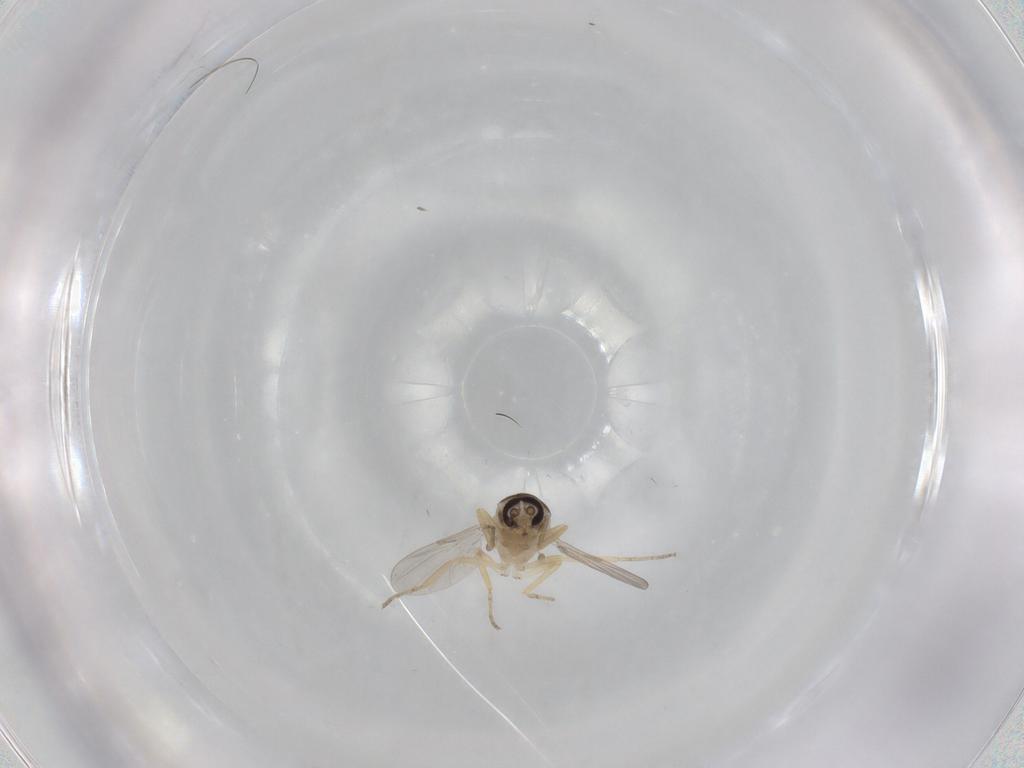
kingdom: Animalia
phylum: Arthropoda
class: Insecta
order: Diptera
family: Ceratopogonidae
